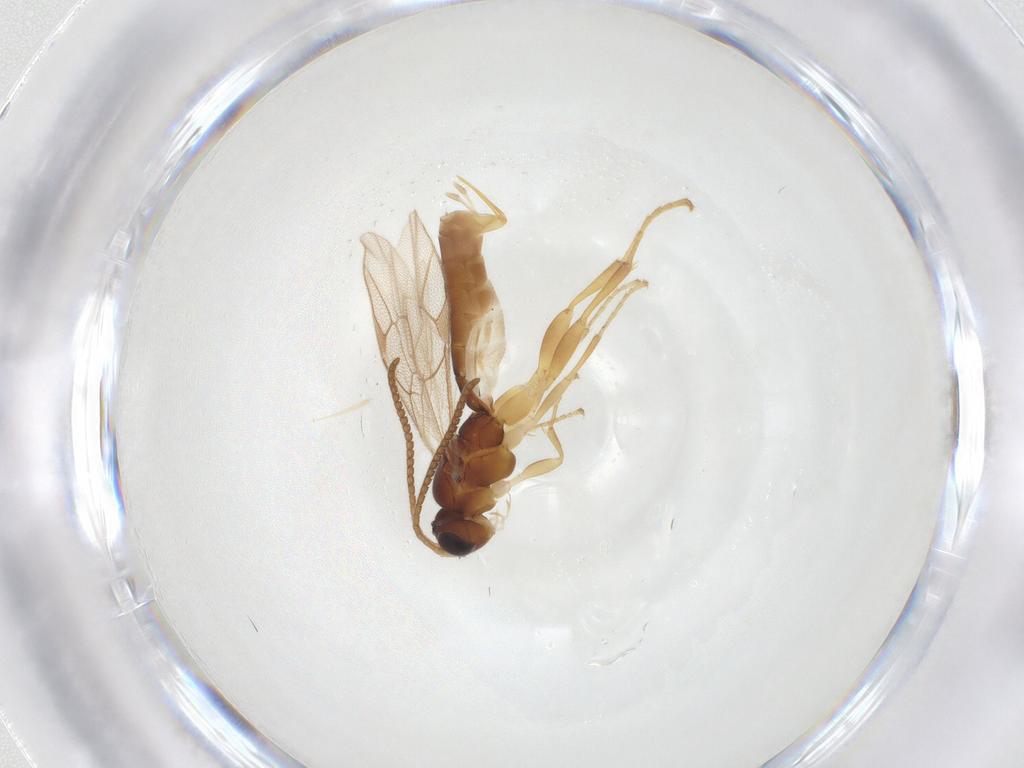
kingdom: Animalia
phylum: Arthropoda
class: Insecta
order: Hymenoptera
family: Ichneumonidae
